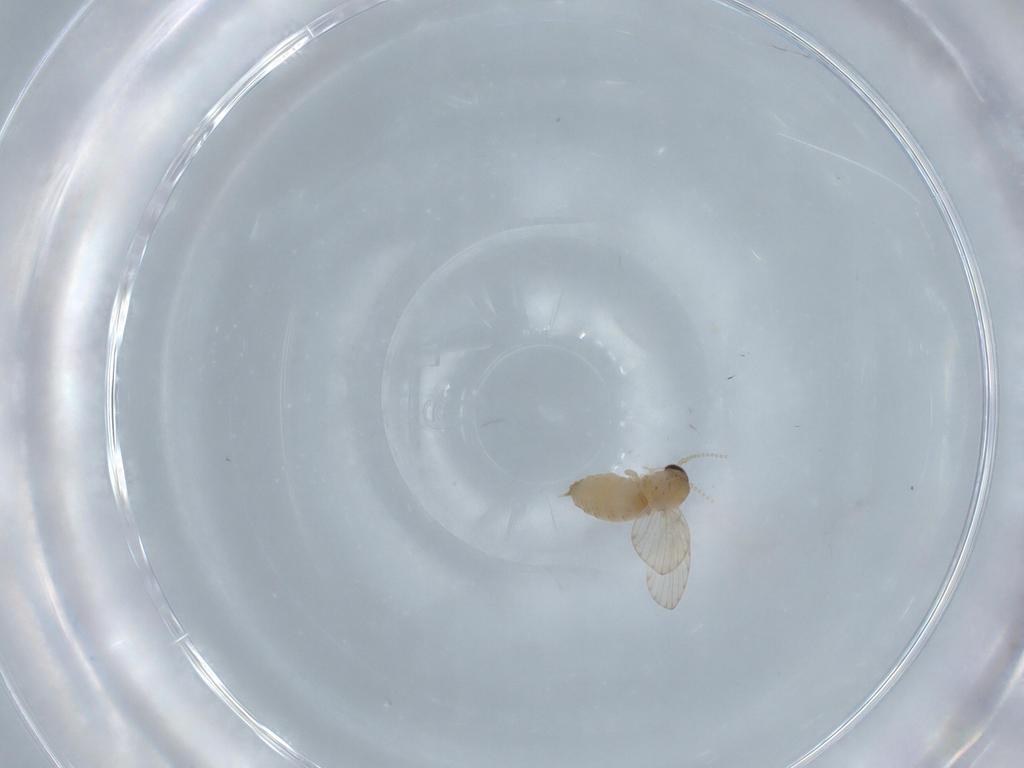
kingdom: Animalia
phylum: Arthropoda
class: Insecta
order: Diptera
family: Psychodidae
